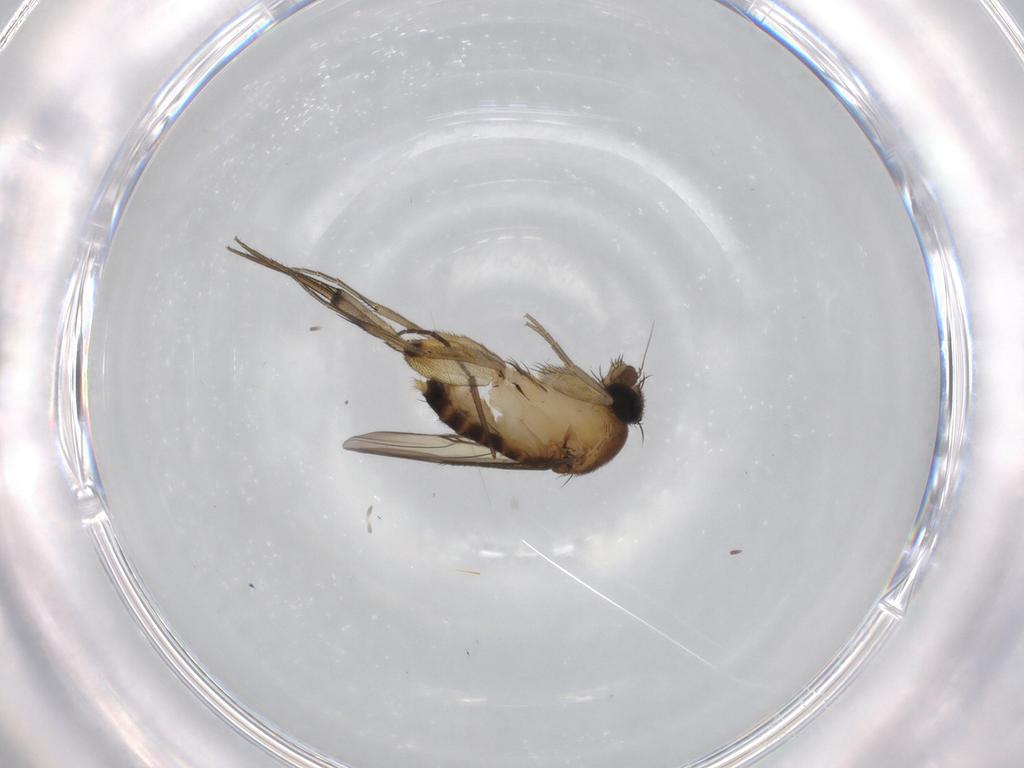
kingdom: Animalia
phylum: Arthropoda
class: Insecta
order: Diptera
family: Phoridae
